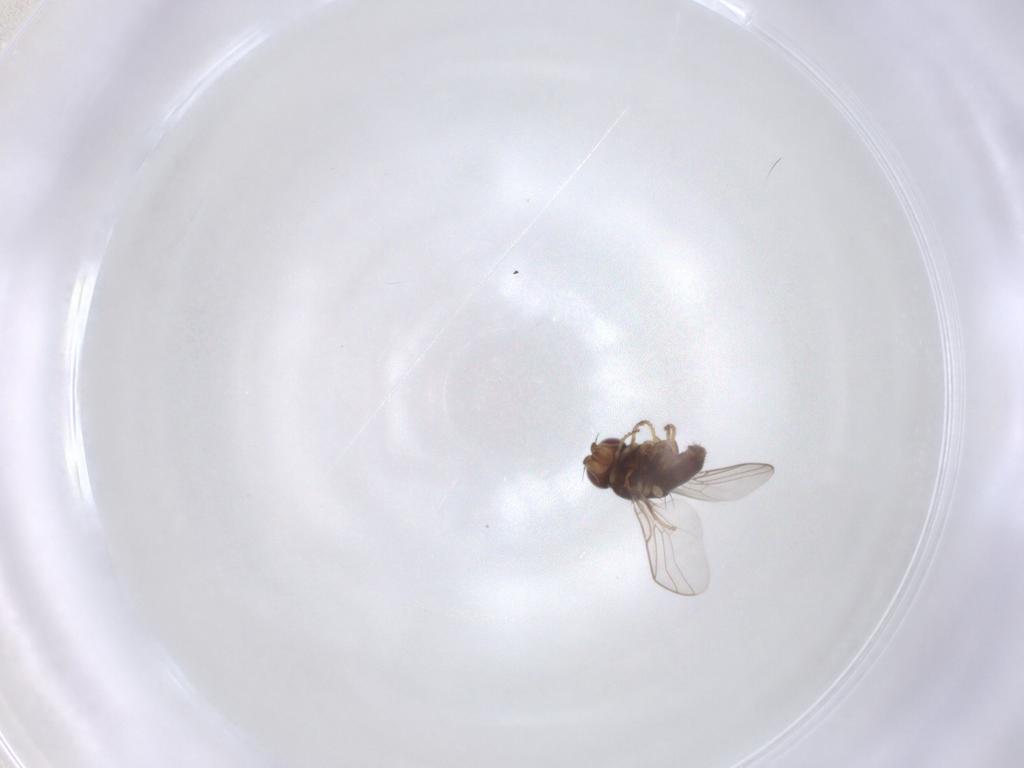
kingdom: Animalia
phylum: Arthropoda
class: Insecta
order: Diptera
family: Chloropidae
